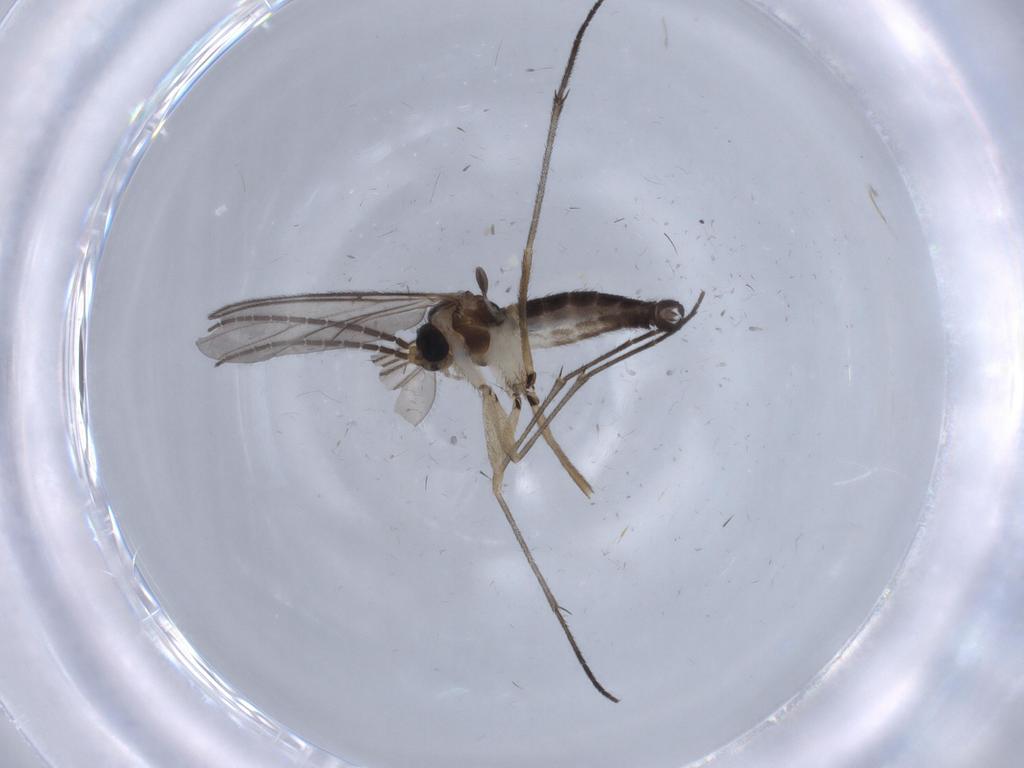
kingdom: Animalia
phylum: Arthropoda
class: Insecta
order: Diptera
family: Sciaridae
